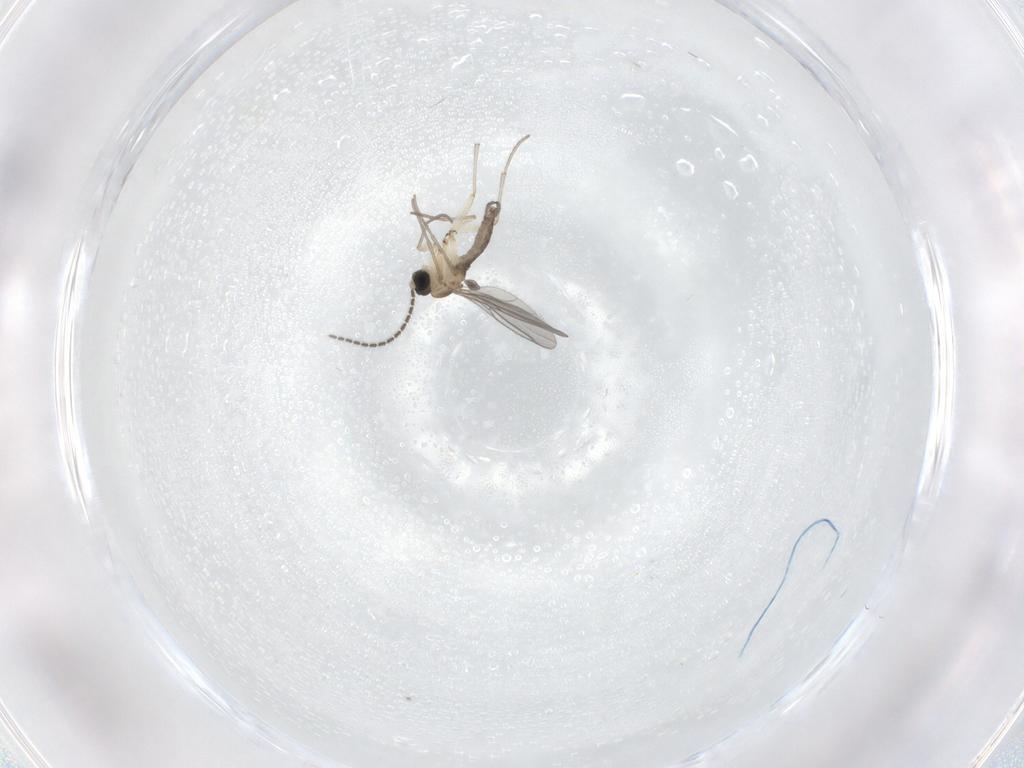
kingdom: Animalia
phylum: Arthropoda
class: Insecta
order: Diptera
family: Sciaridae
